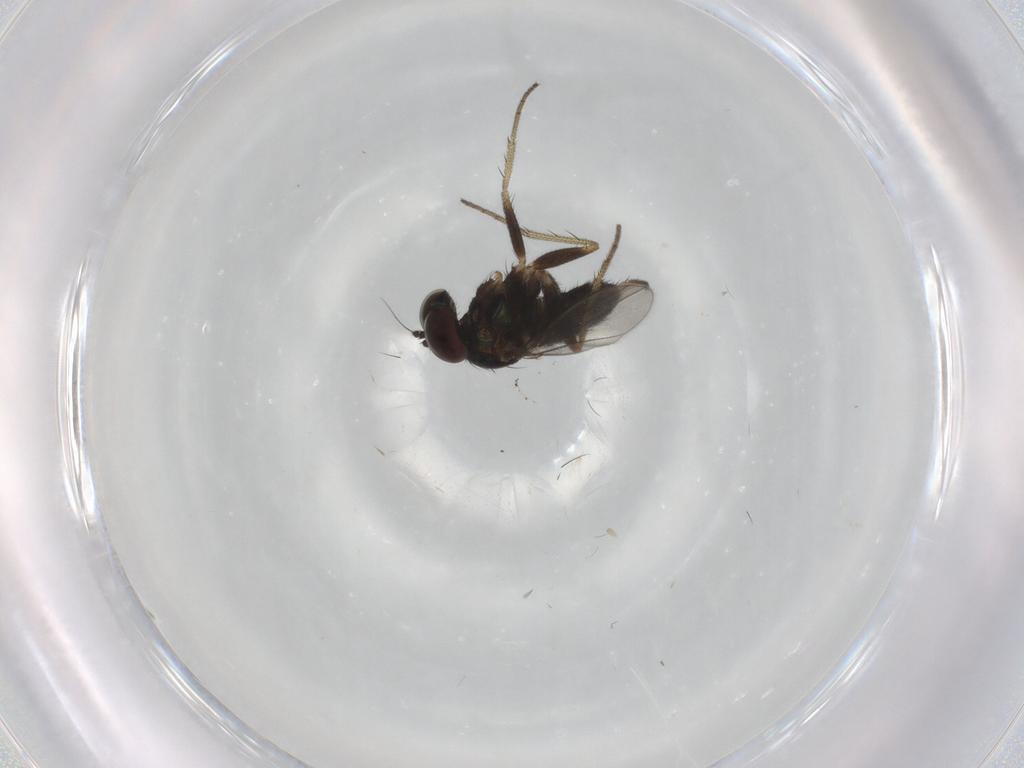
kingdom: Animalia
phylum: Arthropoda
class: Insecta
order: Diptera
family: Dolichopodidae
